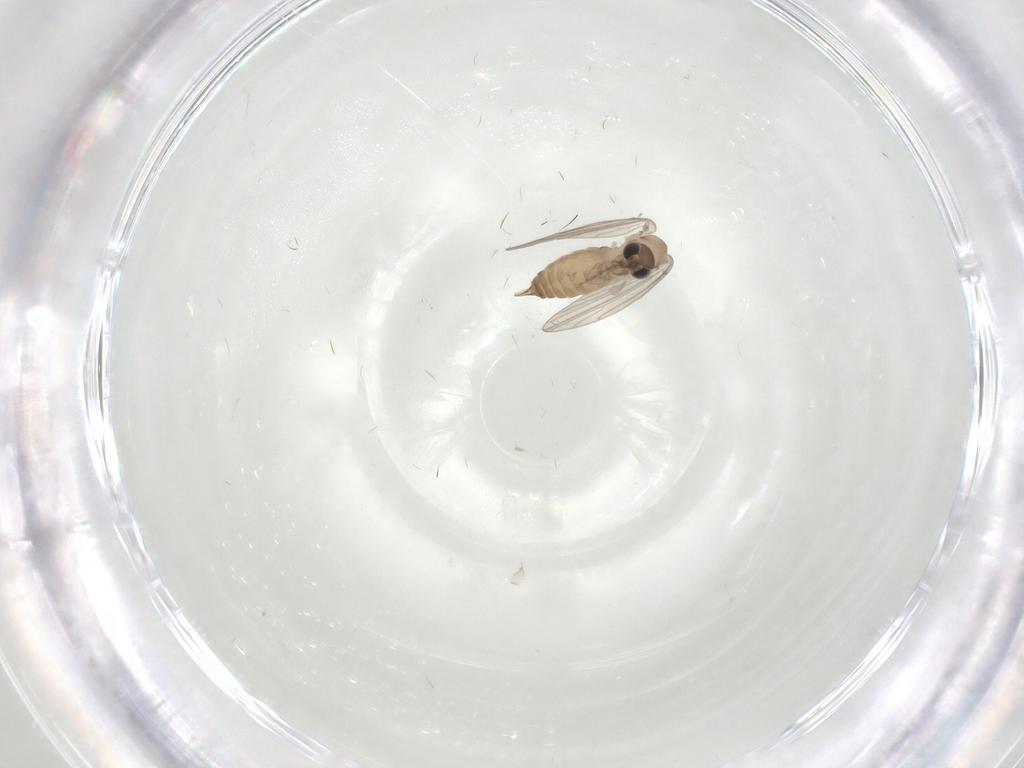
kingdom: Animalia
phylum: Arthropoda
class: Insecta
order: Diptera
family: Psychodidae
